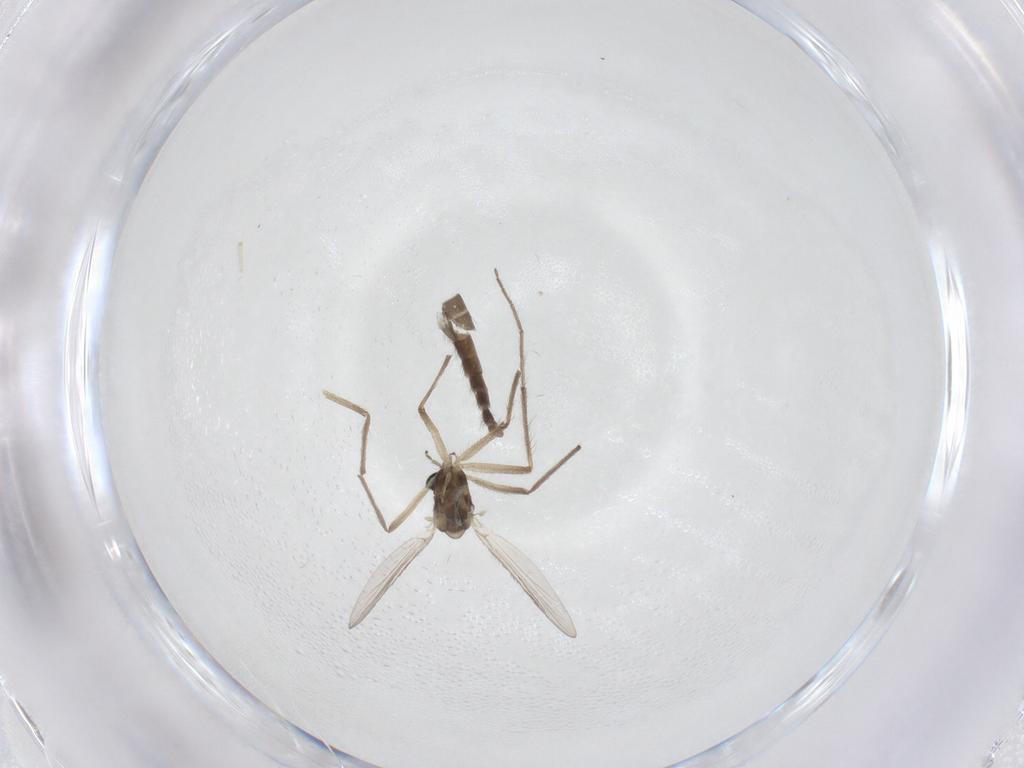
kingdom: Animalia
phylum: Arthropoda
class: Insecta
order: Diptera
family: Chironomidae
